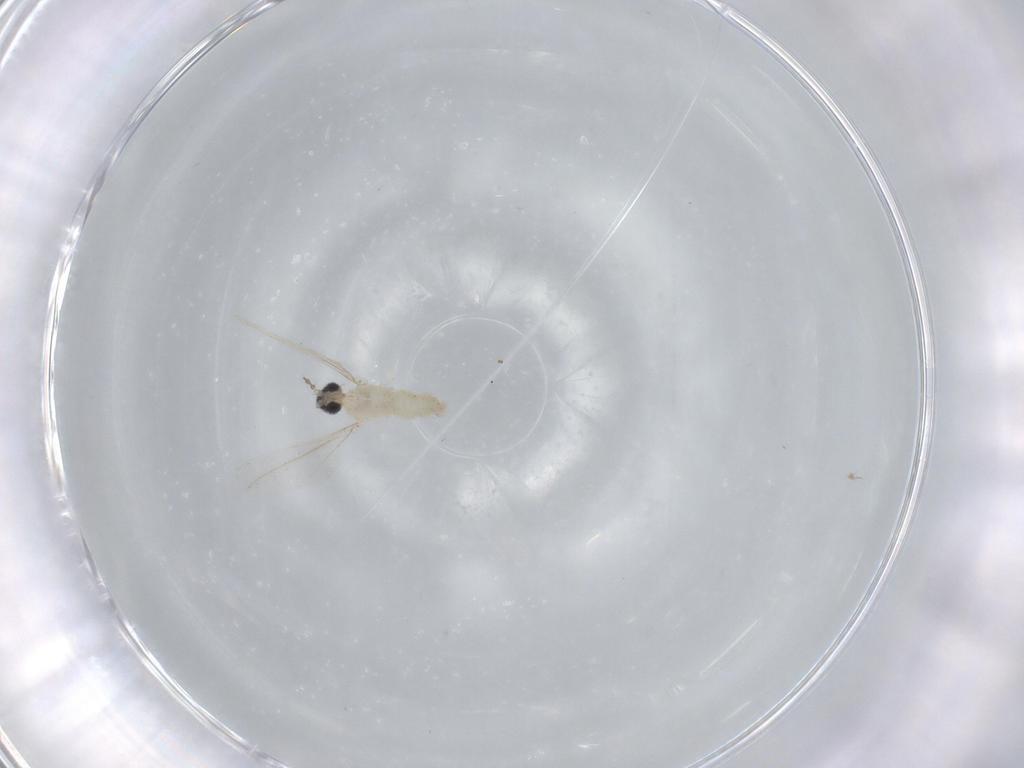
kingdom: Animalia
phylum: Arthropoda
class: Insecta
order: Diptera
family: Cecidomyiidae
